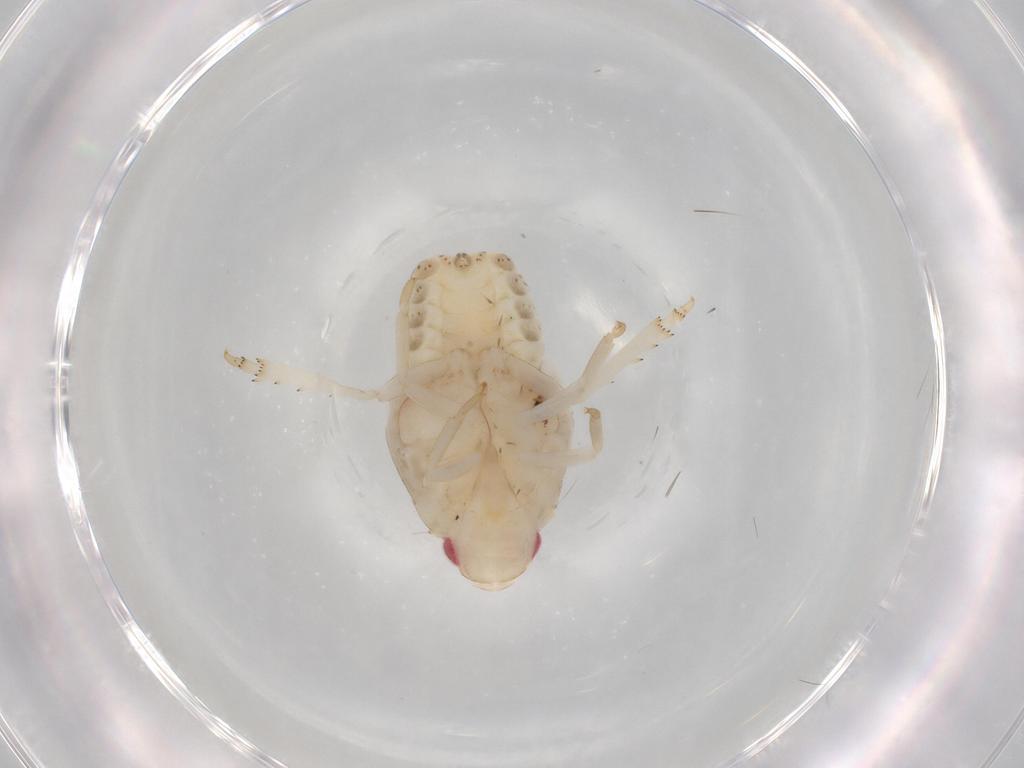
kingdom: Animalia
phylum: Arthropoda
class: Insecta
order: Hemiptera
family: Flatidae
